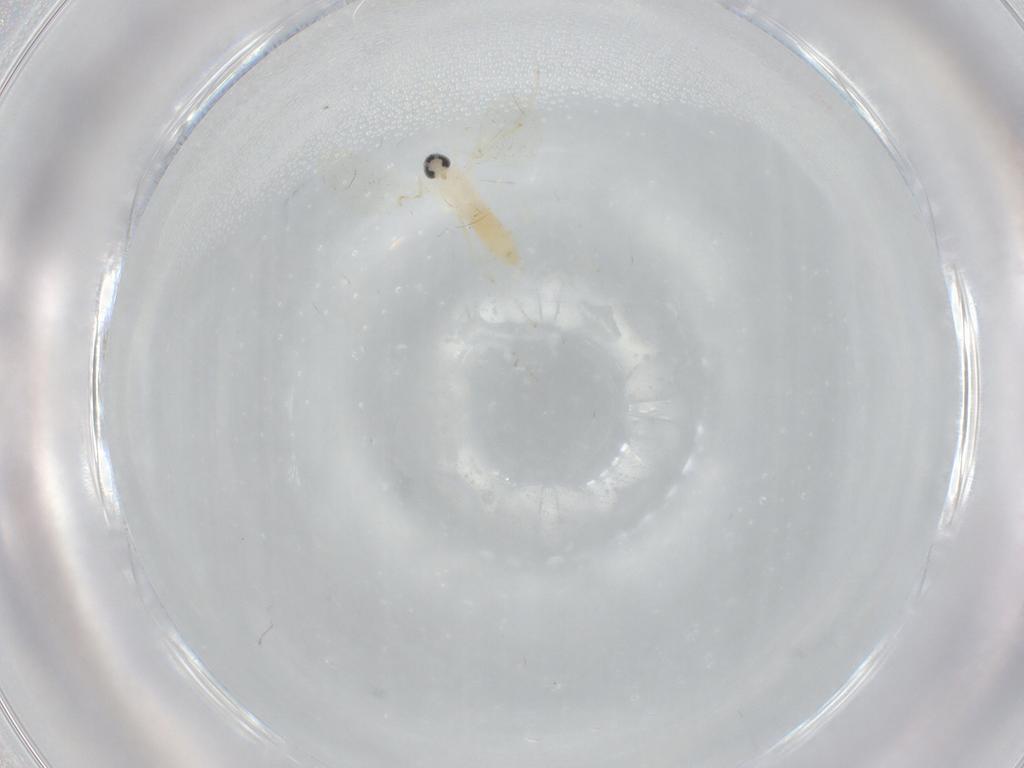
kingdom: Animalia
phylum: Arthropoda
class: Insecta
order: Diptera
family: Cecidomyiidae
